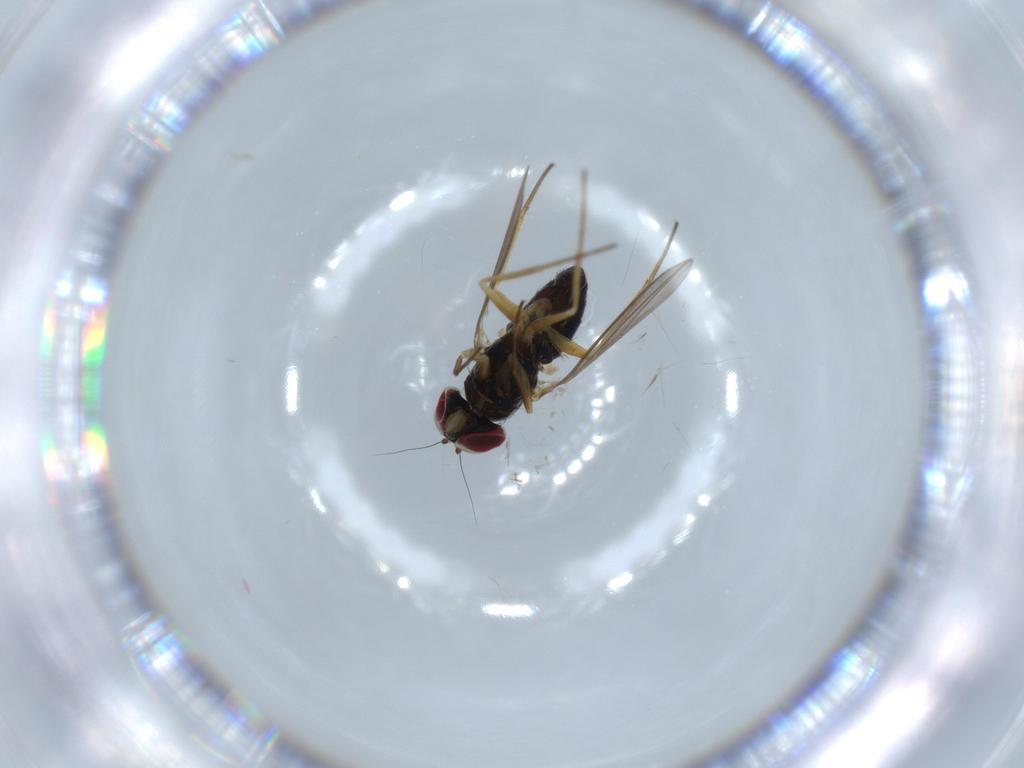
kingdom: Animalia
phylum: Arthropoda
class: Insecta
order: Diptera
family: Dolichopodidae
